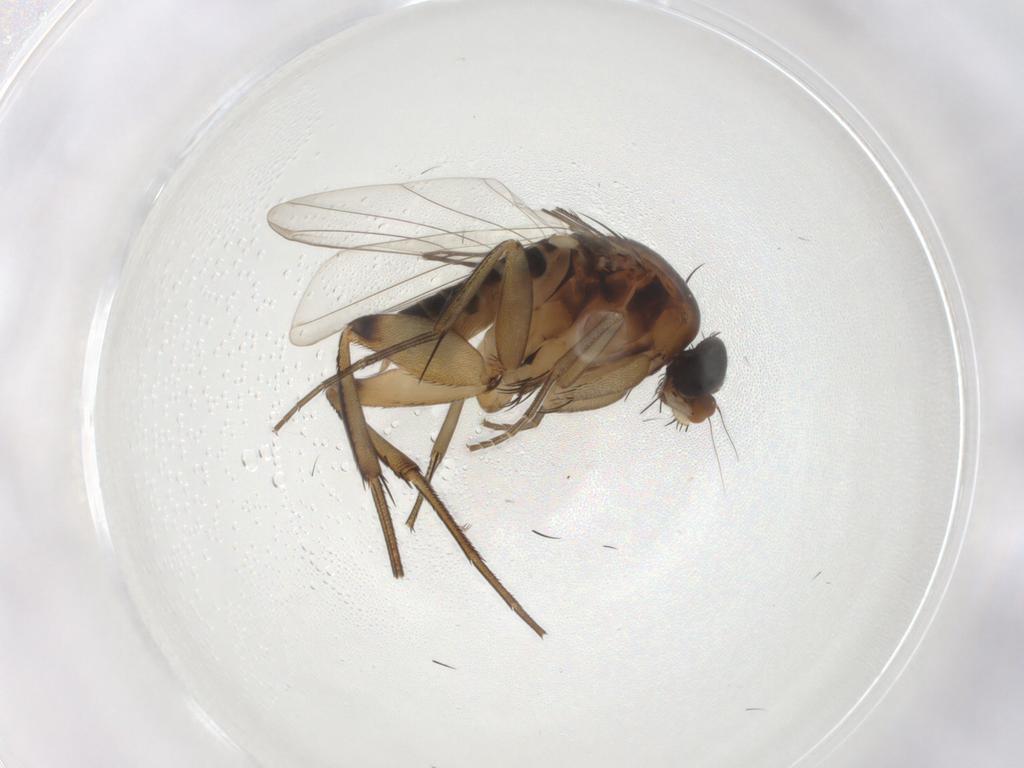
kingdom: Animalia
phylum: Arthropoda
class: Insecta
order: Diptera
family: Phoridae
